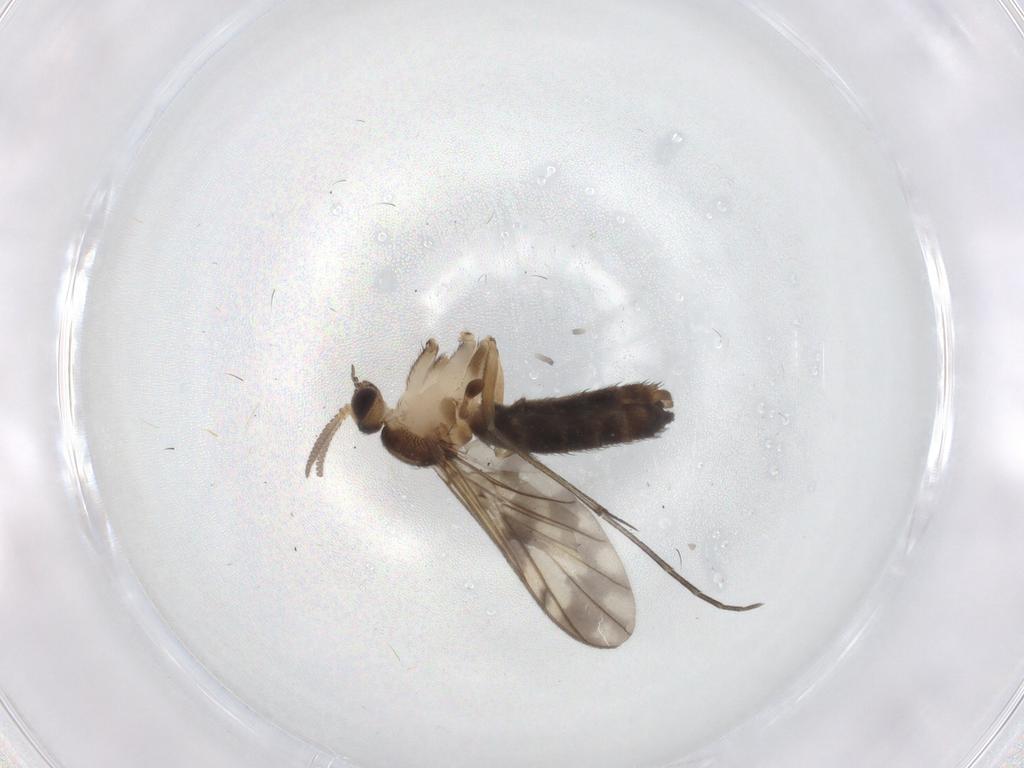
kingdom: Animalia
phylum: Arthropoda
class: Insecta
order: Diptera
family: Keroplatidae
